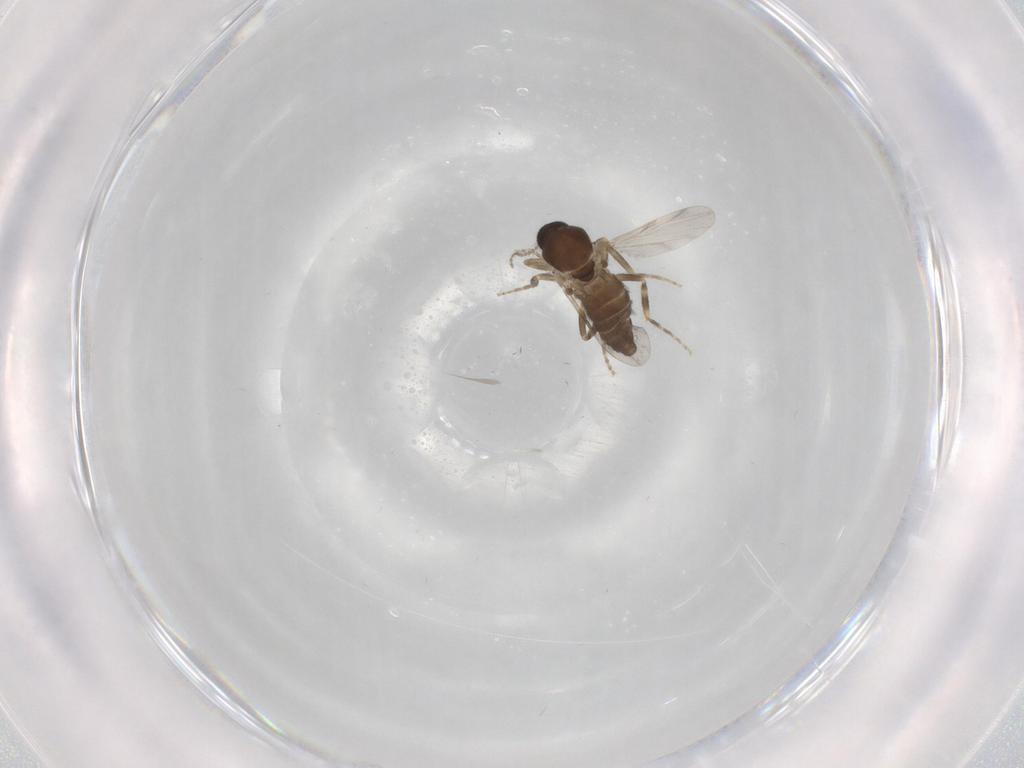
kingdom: Animalia
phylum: Arthropoda
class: Insecta
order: Diptera
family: Ceratopogonidae
